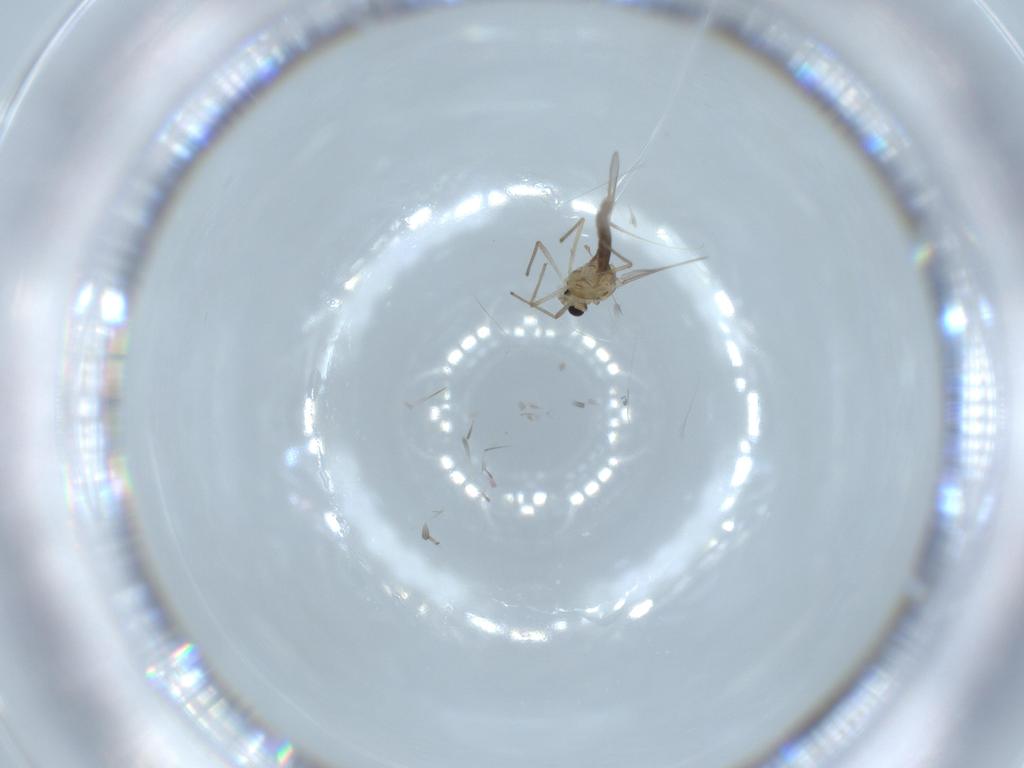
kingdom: Animalia
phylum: Arthropoda
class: Insecta
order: Diptera
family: Chironomidae
